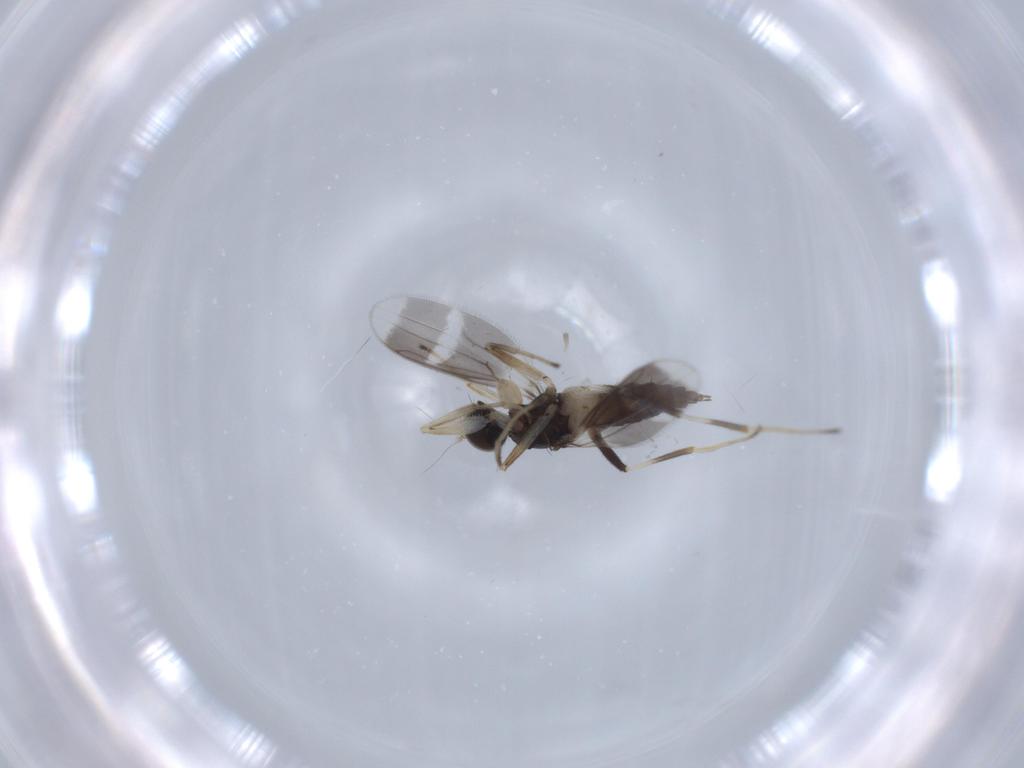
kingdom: Animalia
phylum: Arthropoda
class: Insecta
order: Diptera
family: Hybotidae
